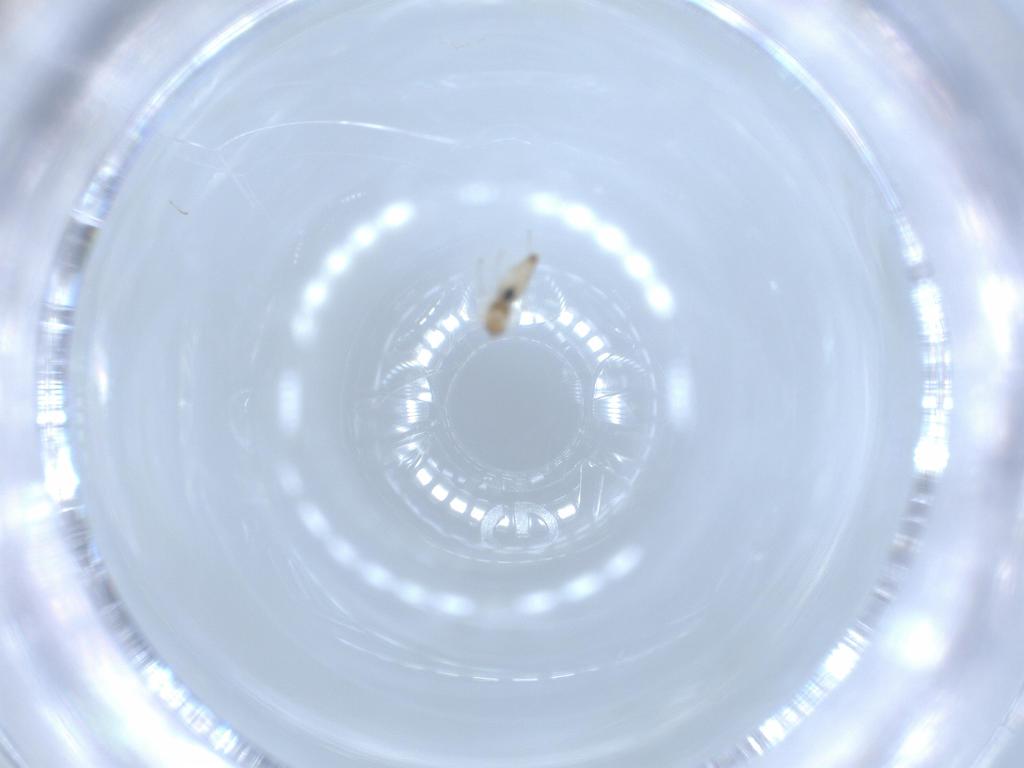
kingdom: Animalia
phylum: Arthropoda
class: Insecta
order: Diptera
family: Cecidomyiidae
